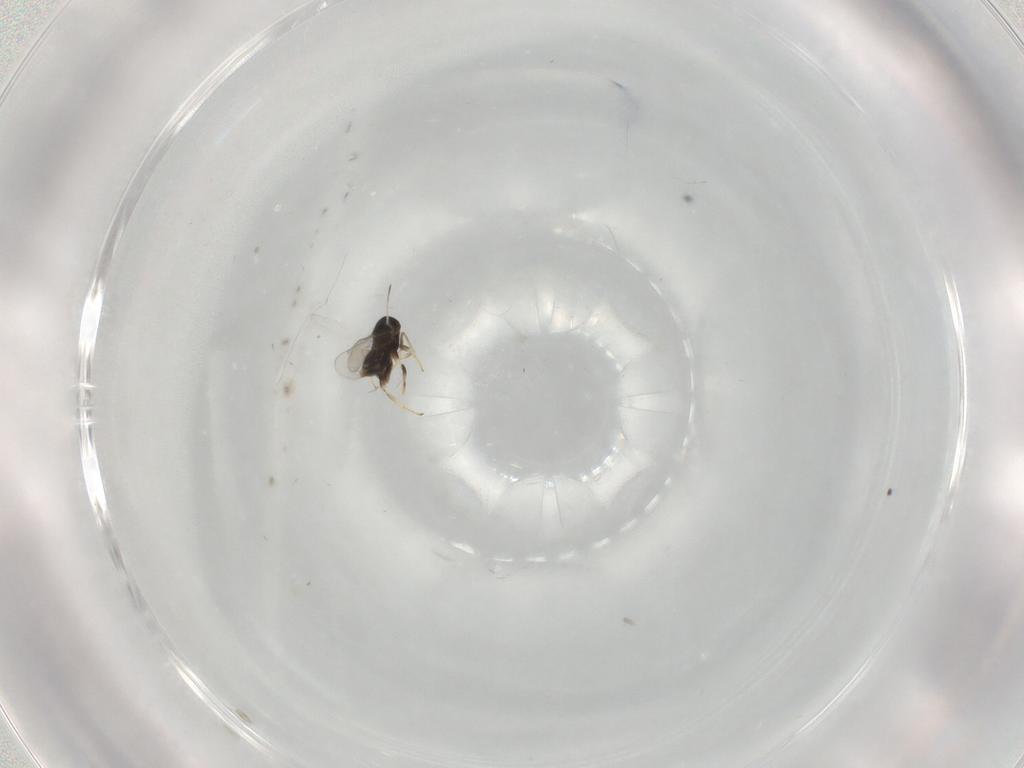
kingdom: Animalia
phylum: Arthropoda
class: Insecta
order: Hymenoptera
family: Aphelinidae
